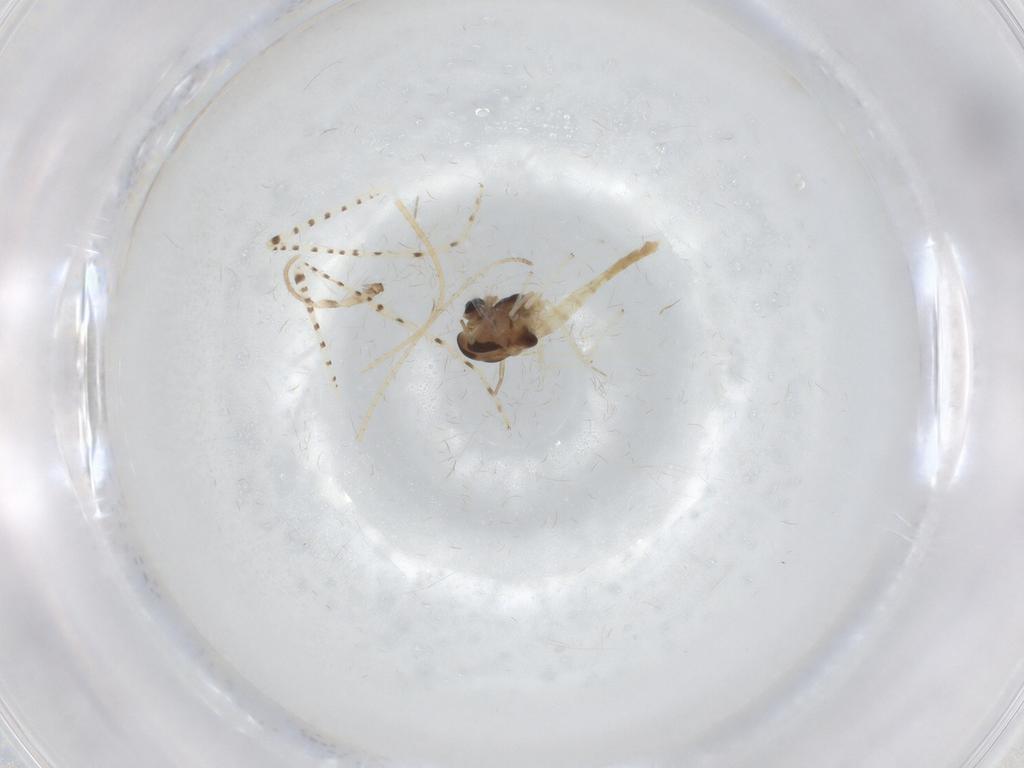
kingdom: Animalia
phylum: Arthropoda
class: Insecta
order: Diptera
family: Chironomidae
